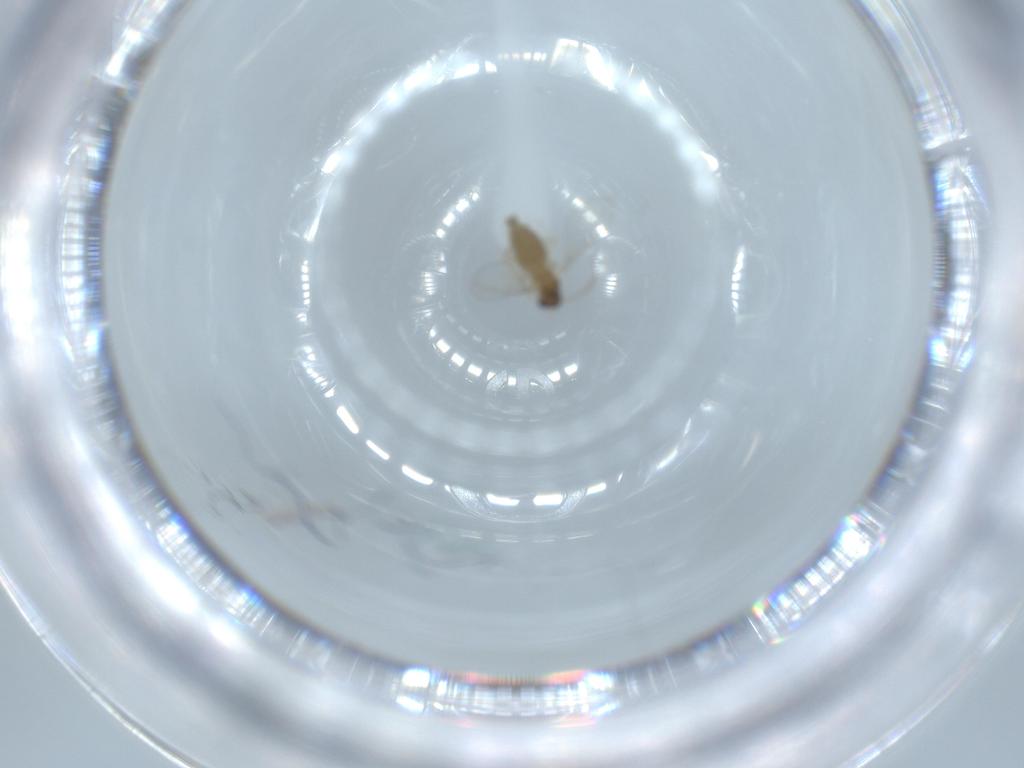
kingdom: Animalia
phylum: Arthropoda
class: Insecta
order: Diptera
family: Cecidomyiidae
